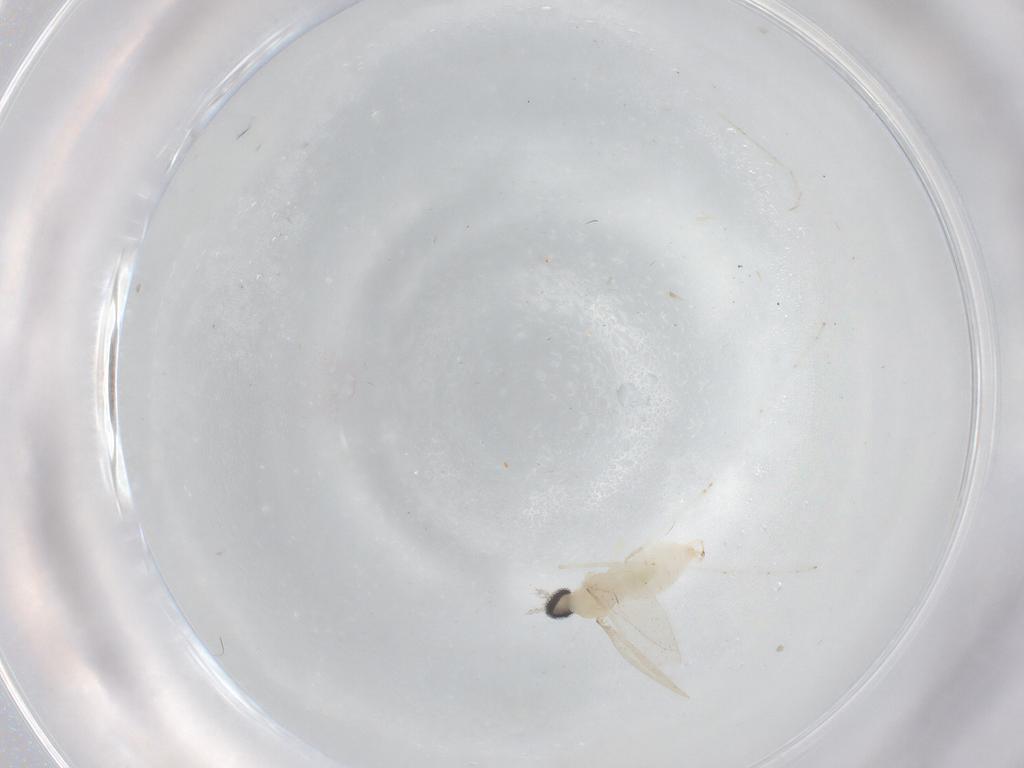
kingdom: Animalia
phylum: Arthropoda
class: Insecta
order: Diptera
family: Cecidomyiidae
